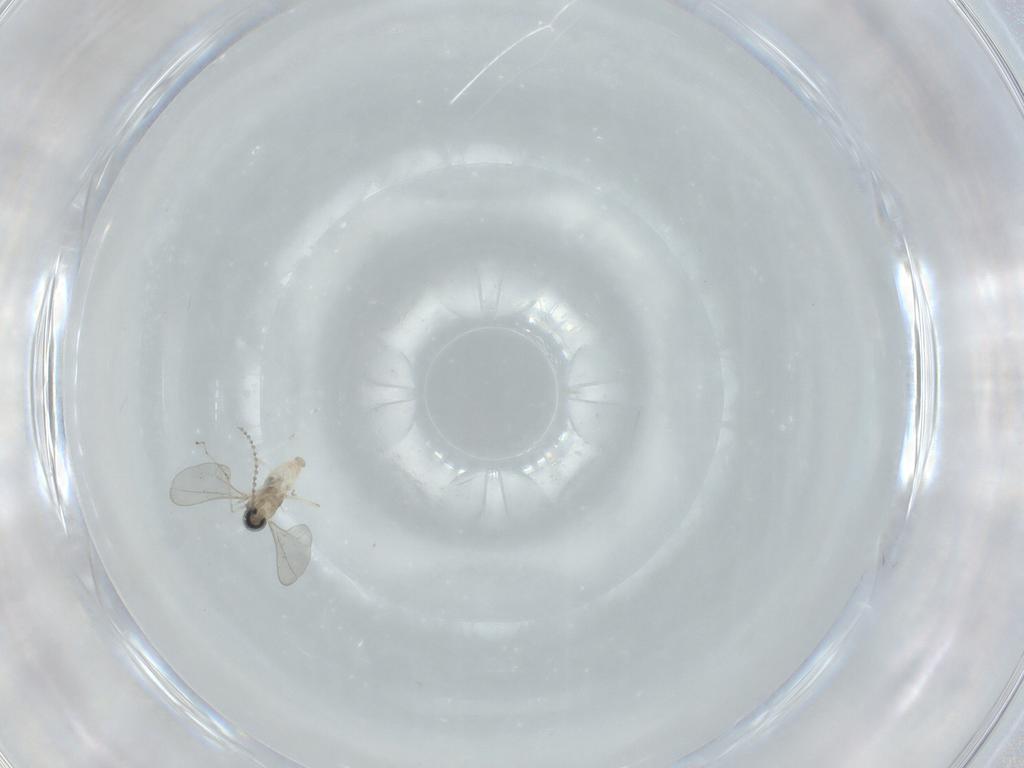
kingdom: Animalia
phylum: Arthropoda
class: Insecta
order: Diptera
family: Cecidomyiidae
